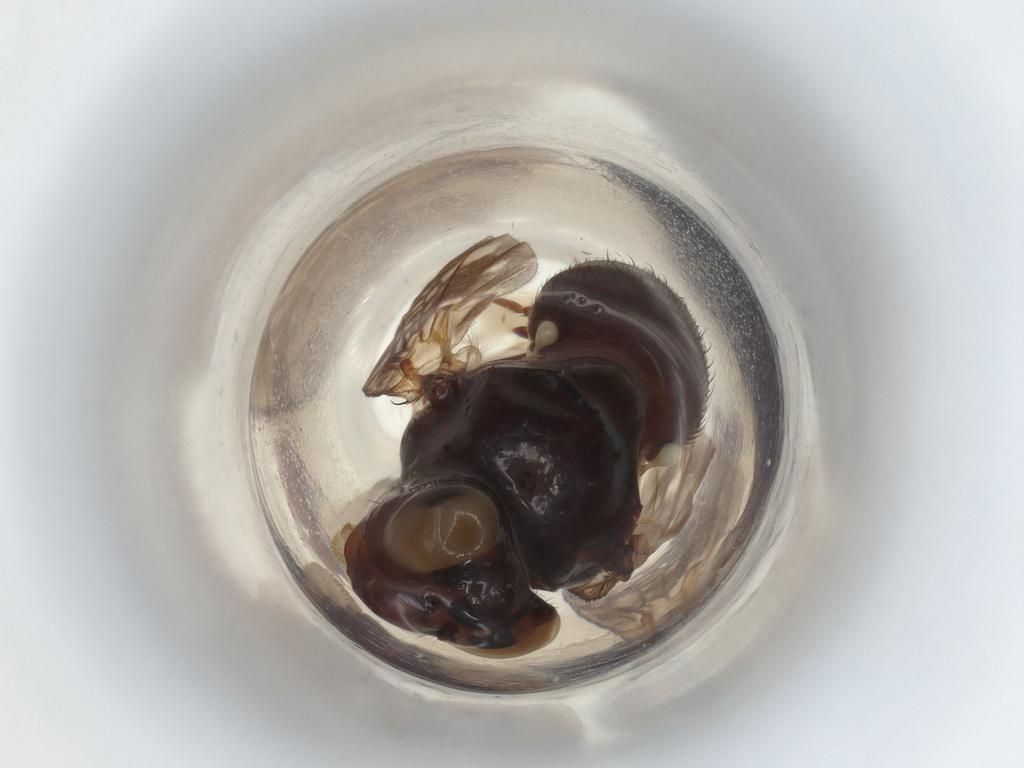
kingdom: Animalia
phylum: Arthropoda
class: Insecta
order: Diptera
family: Sciaridae
